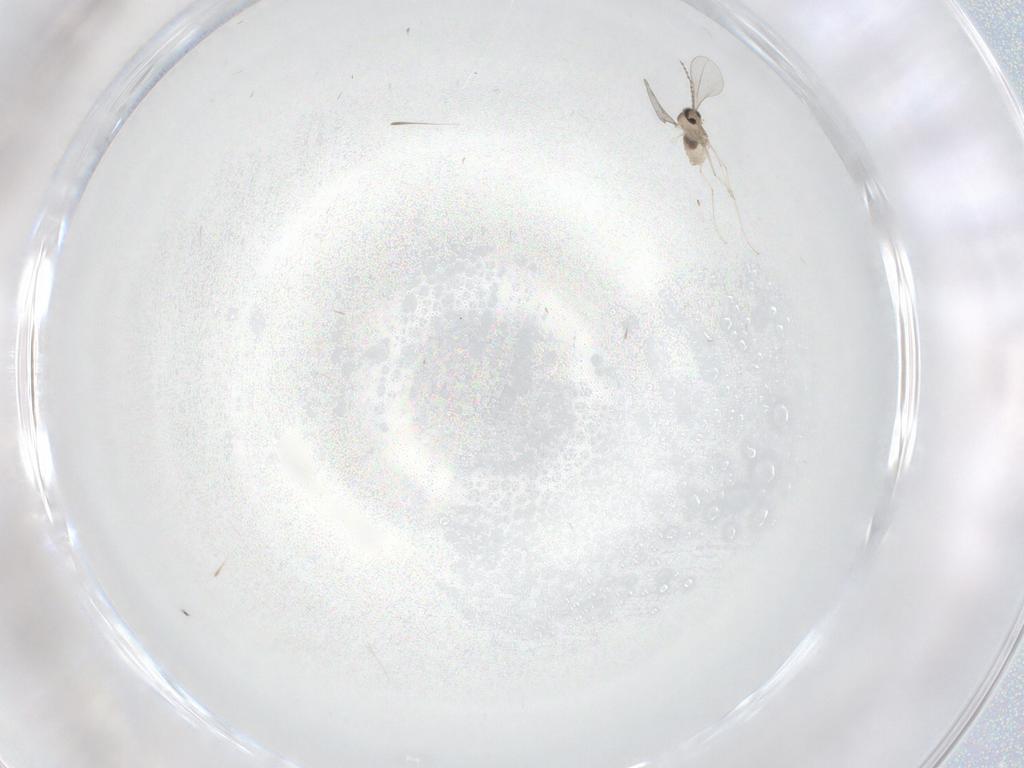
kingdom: Animalia
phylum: Arthropoda
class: Insecta
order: Diptera
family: Cecidomyiidae
